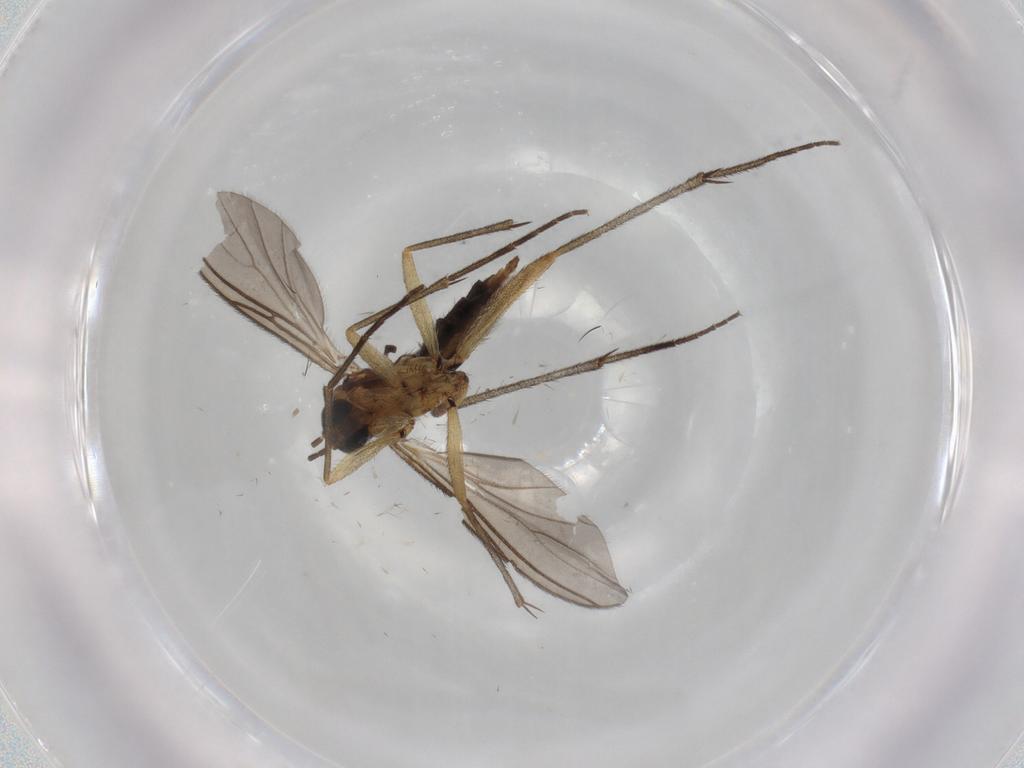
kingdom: Animalia
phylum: Arthropoda
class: Insecta
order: Diptera
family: Sciaridae
